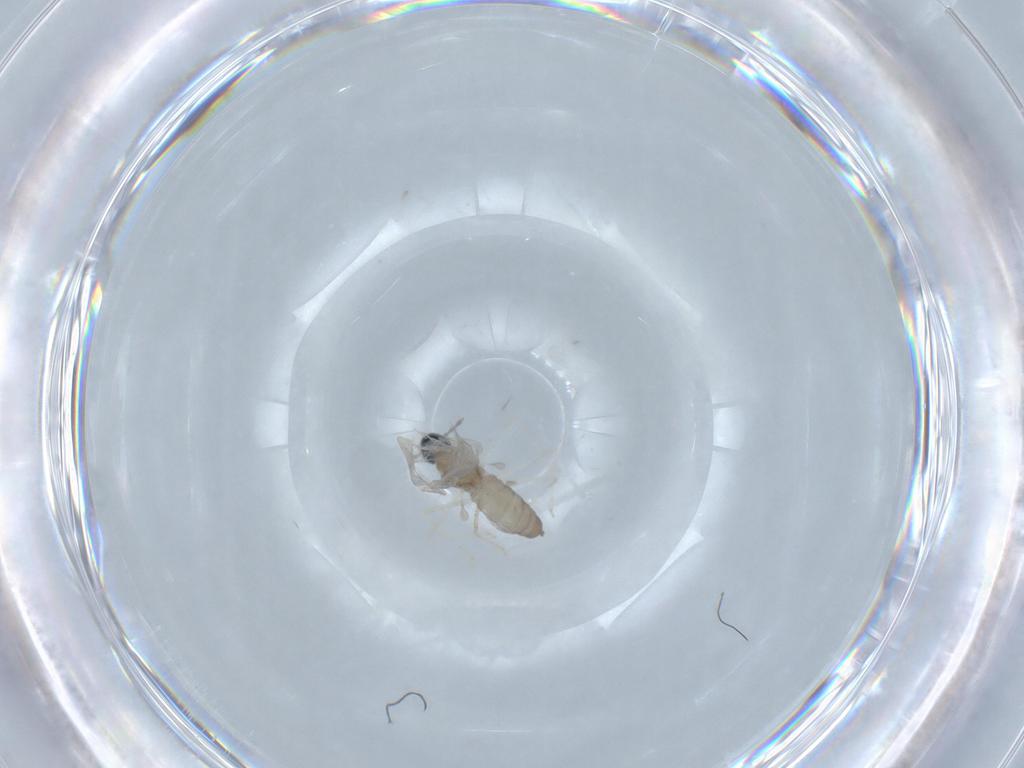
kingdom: Animalia
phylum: Arthropoda
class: Insecta
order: Diptera
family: Cecidomyiidae
